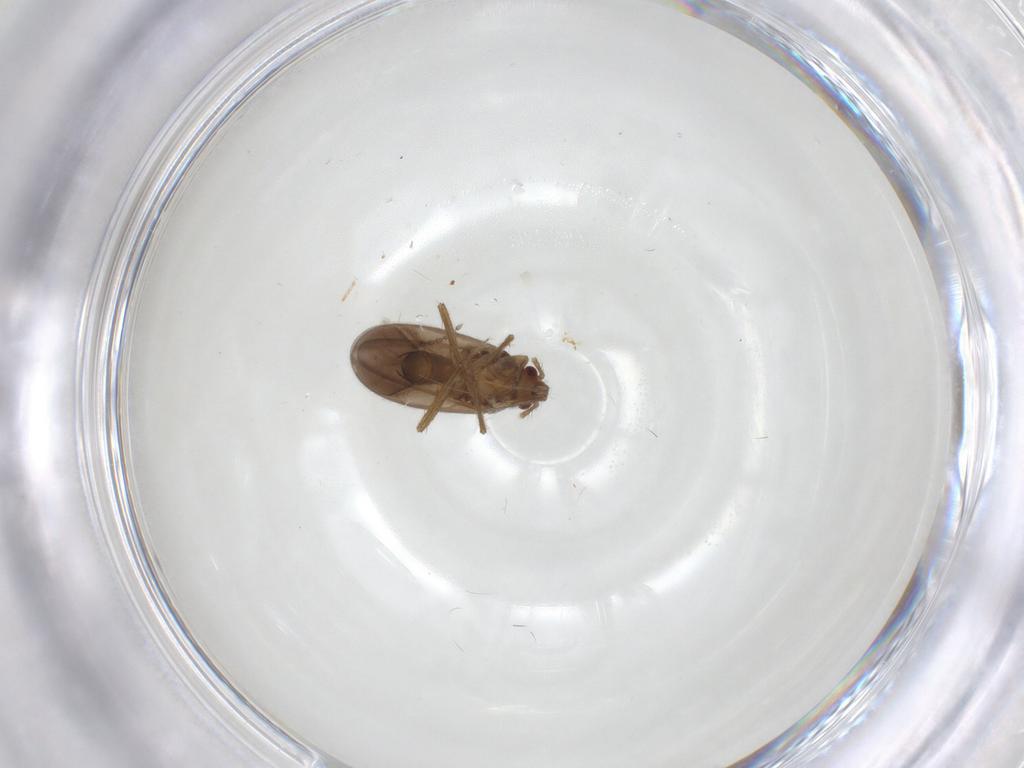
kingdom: Animalia
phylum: Arthropoda
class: Insecta
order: Hemiptera
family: Ceratocombidae
